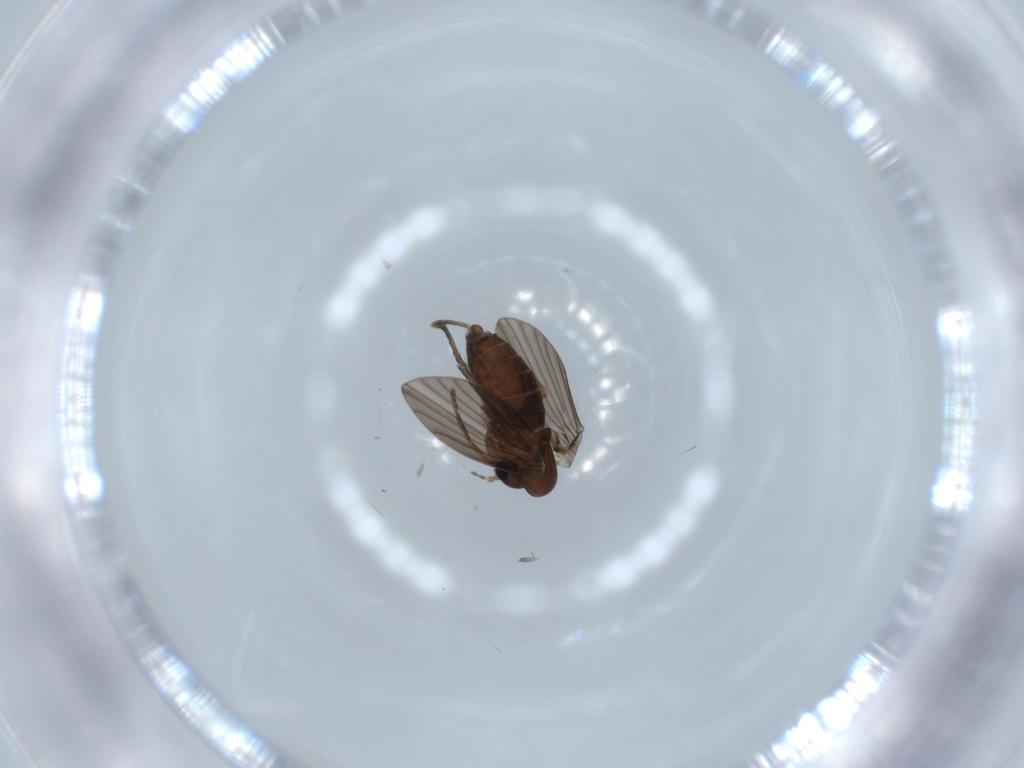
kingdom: Animalia
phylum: Arthropoda
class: Insecta
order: Diptera
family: Psychodidae
